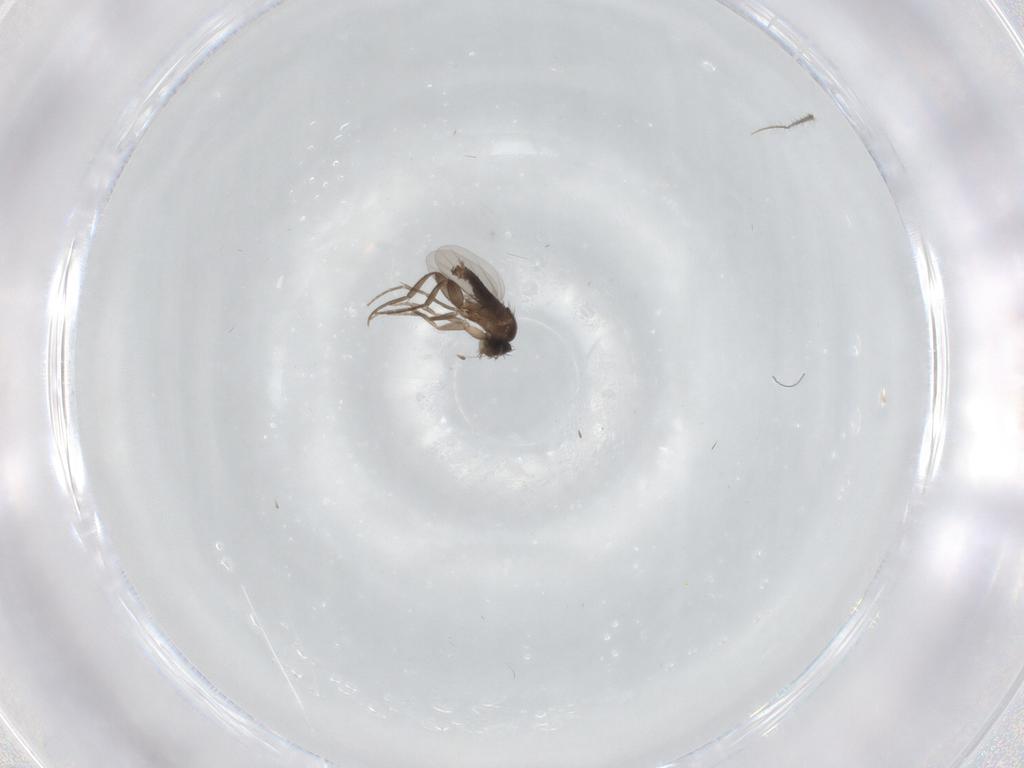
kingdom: Animalia
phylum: Arthropoda
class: Insecta
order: Diptera
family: Phoridae
